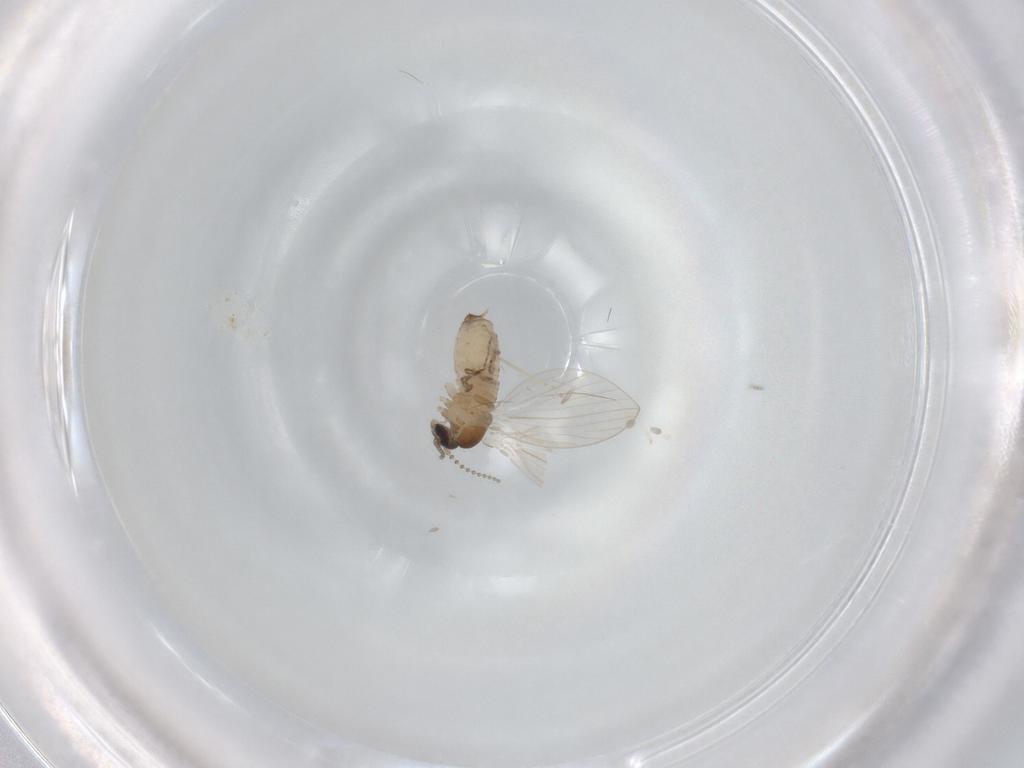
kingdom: Animalia
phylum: Arthropoda
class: Insecta
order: Diptera
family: Psychodidae
